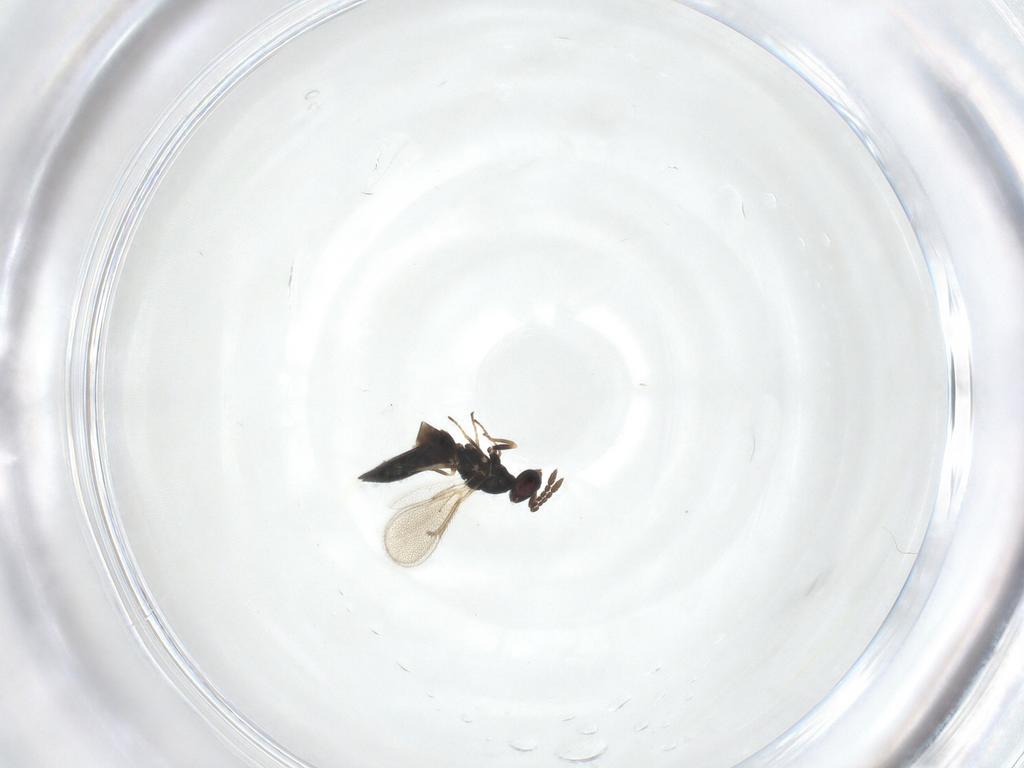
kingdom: Animalia
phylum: Arthropoda
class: Insecta
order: Hymenoptera
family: Eulophidae
